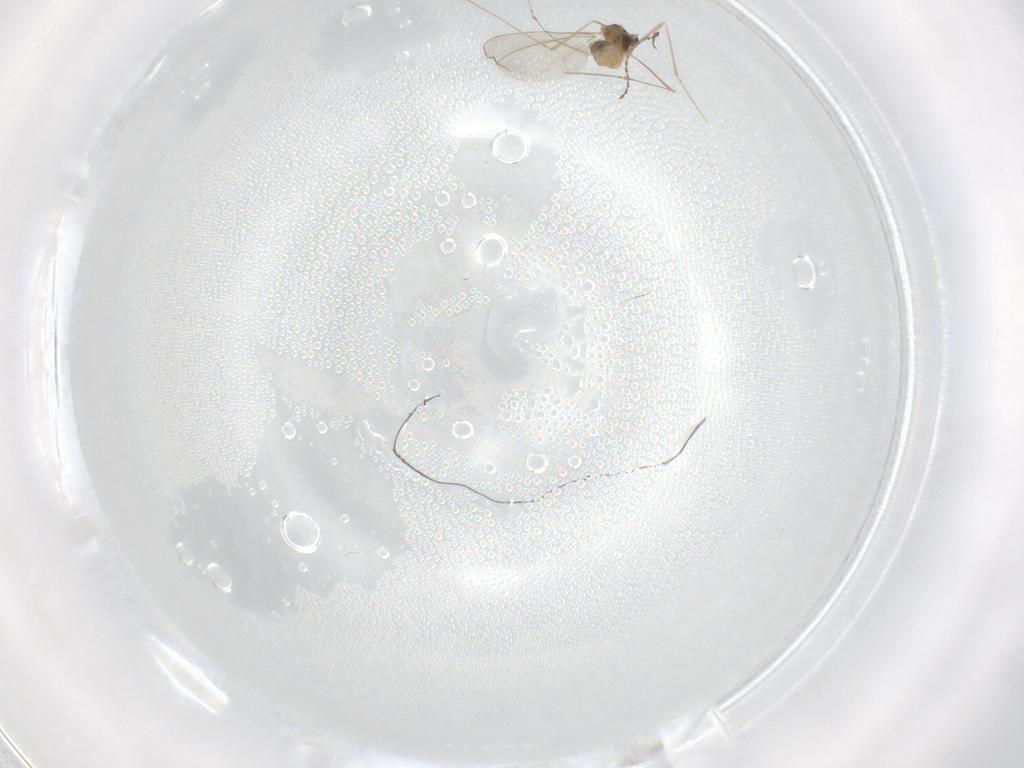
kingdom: Animalia
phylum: Arthropoda
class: Insecta
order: Diptera
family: Cecidomyiidae
